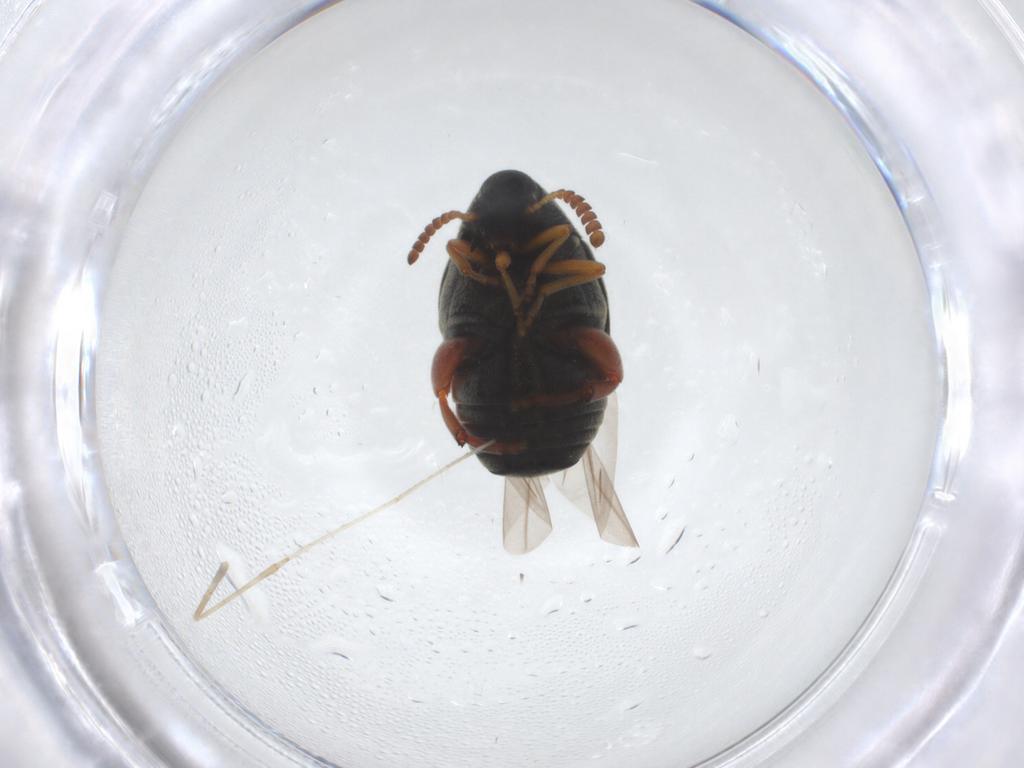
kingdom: Animalia
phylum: Arthropoda
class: Insecta
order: Coleoptera
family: Chrysomelidae
